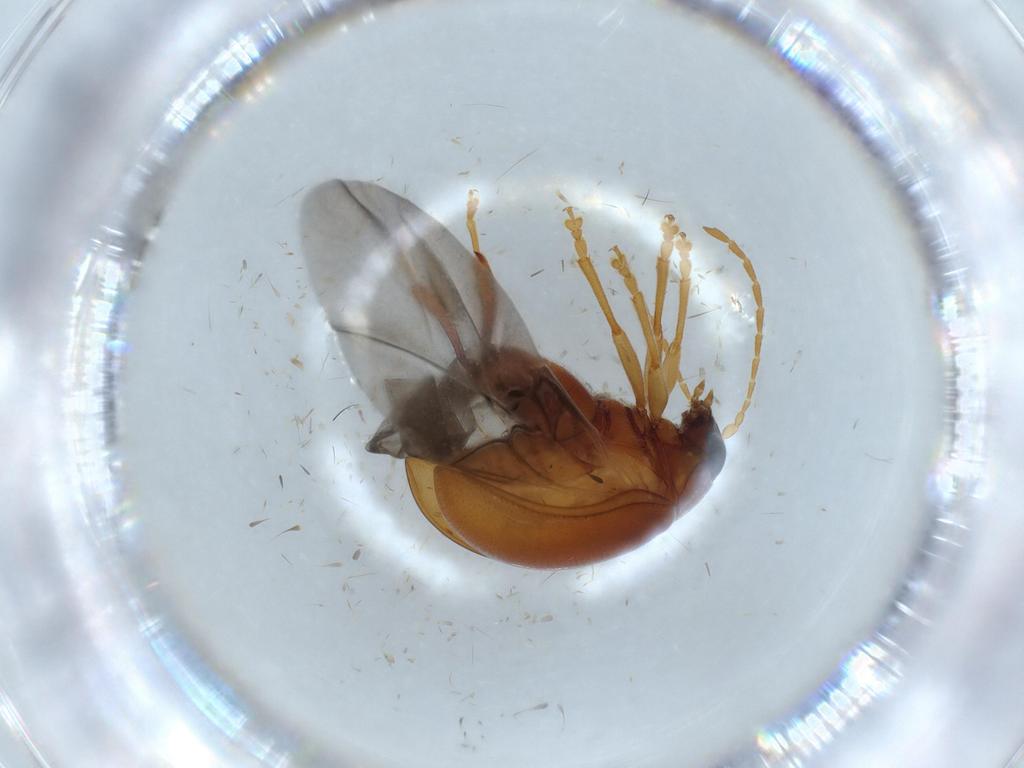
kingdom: Animalia
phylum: Arthropoda
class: Insecta
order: Coleoptera
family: Chrysomelidae
